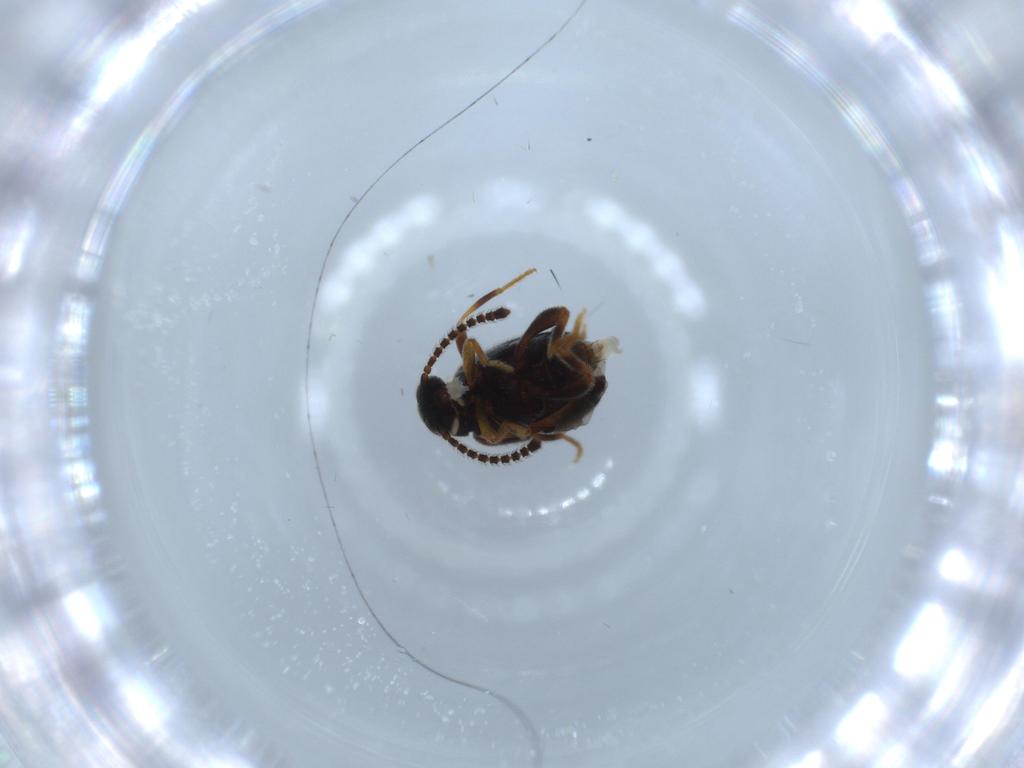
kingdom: Animalia
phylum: Arthropoda
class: Insecta
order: Coleoptera
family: Aderidae
